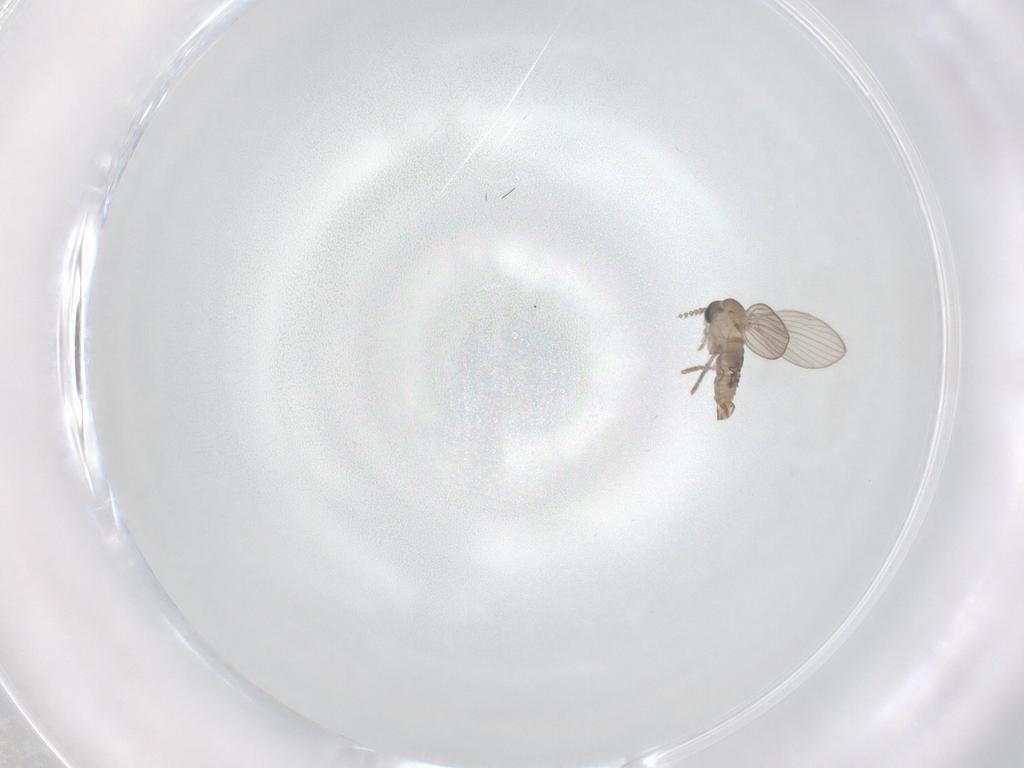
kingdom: Animalia
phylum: Arthropoda
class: Insecta
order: Diptera
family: Psychodidae
